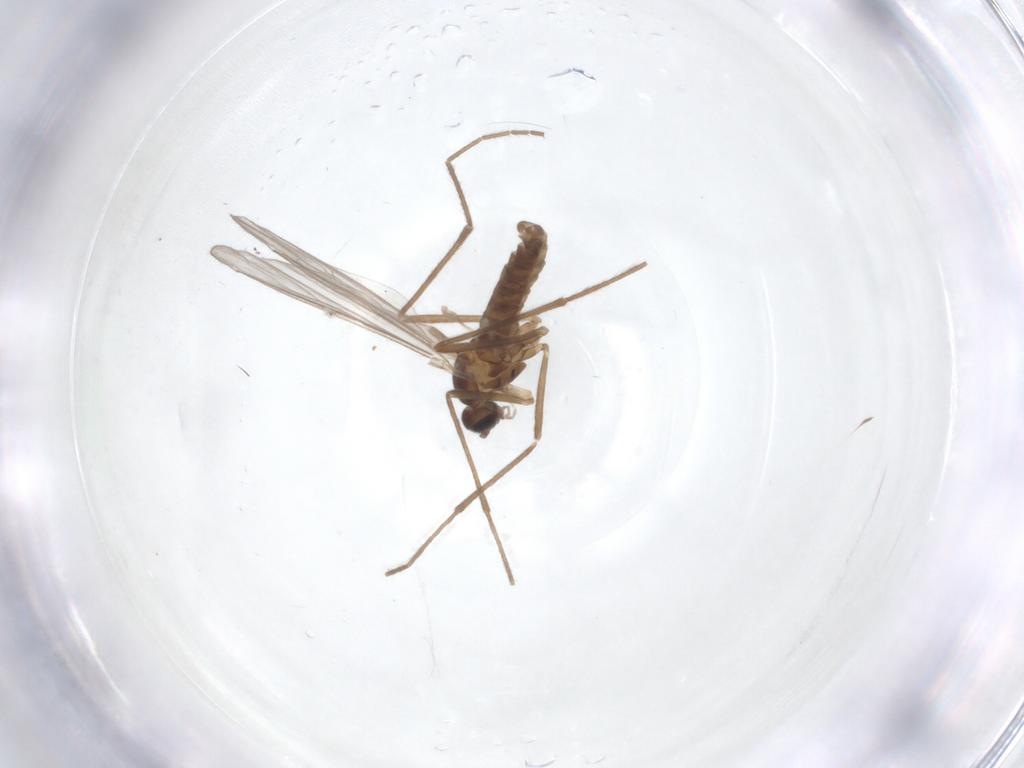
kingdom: Animalia
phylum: Arthropoda
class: Insecta
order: Diptera
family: Cecidomyiidae
